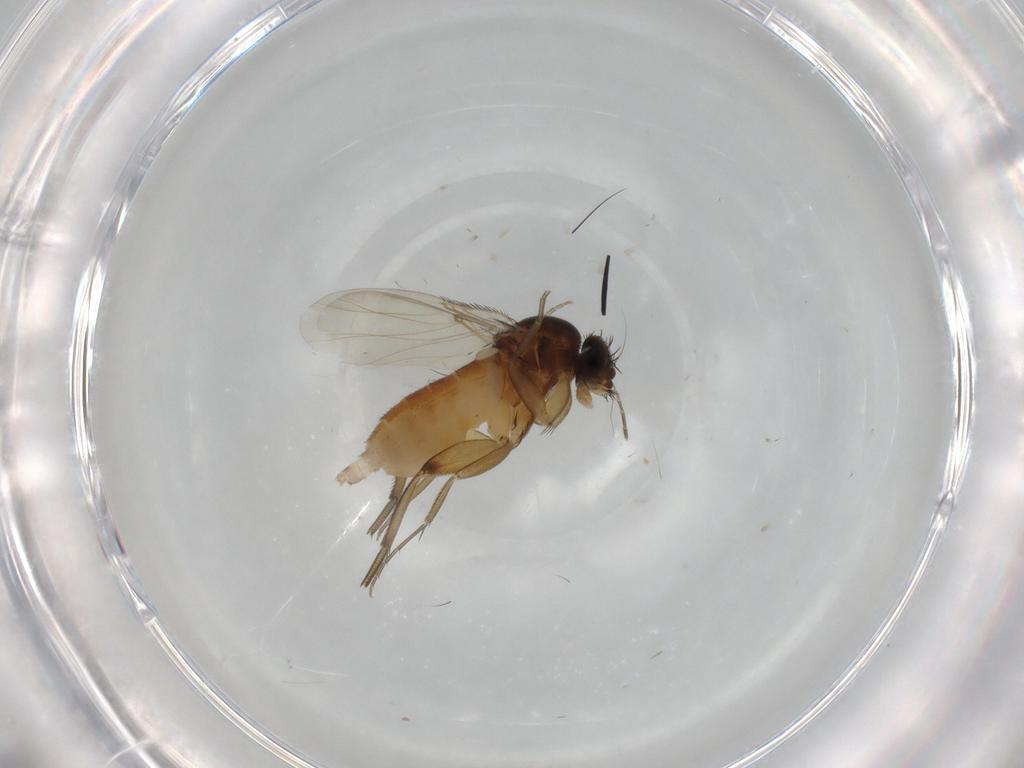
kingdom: Animalia
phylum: Arthropoda
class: Insecta
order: Diptera
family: Phoridae
